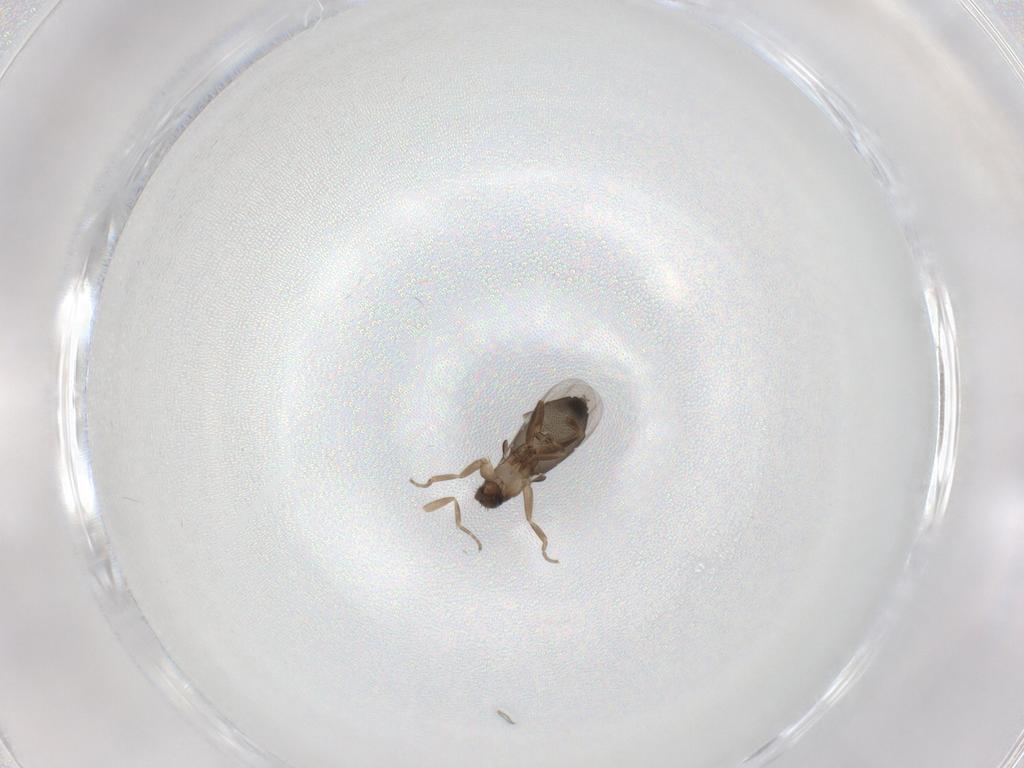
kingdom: Animalia
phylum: Arthropoda
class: Insecta
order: Diptera
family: Phoridae
